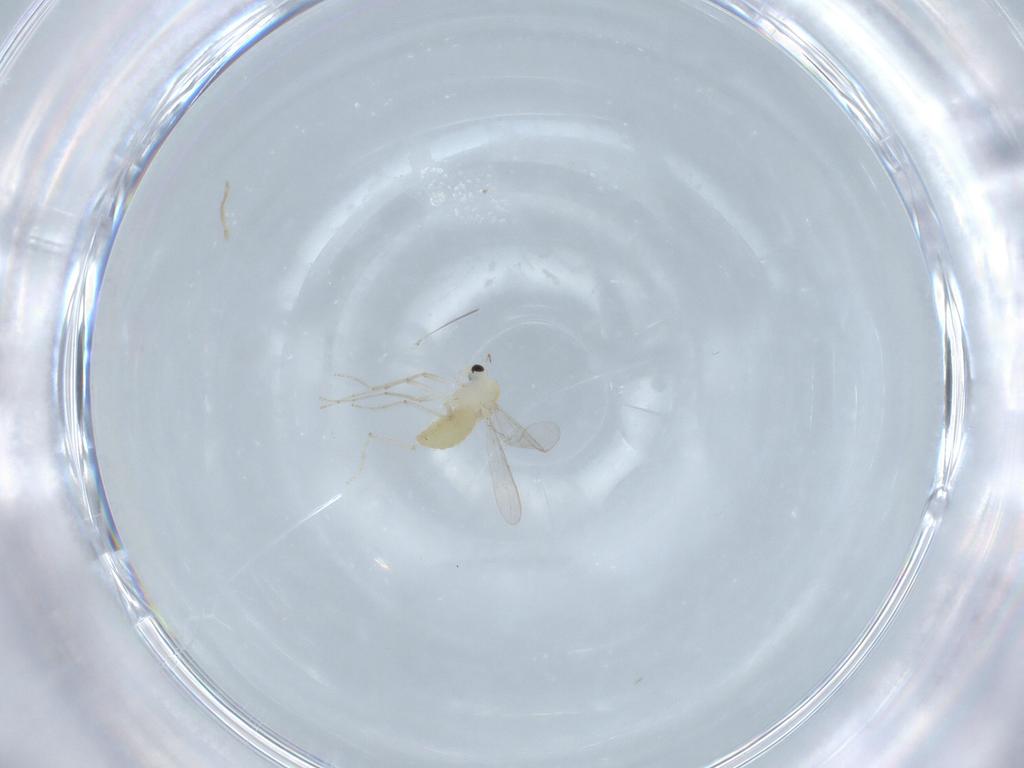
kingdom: Animalia
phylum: Arthropoda
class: Insecta
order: Diptera
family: Chironomidae
